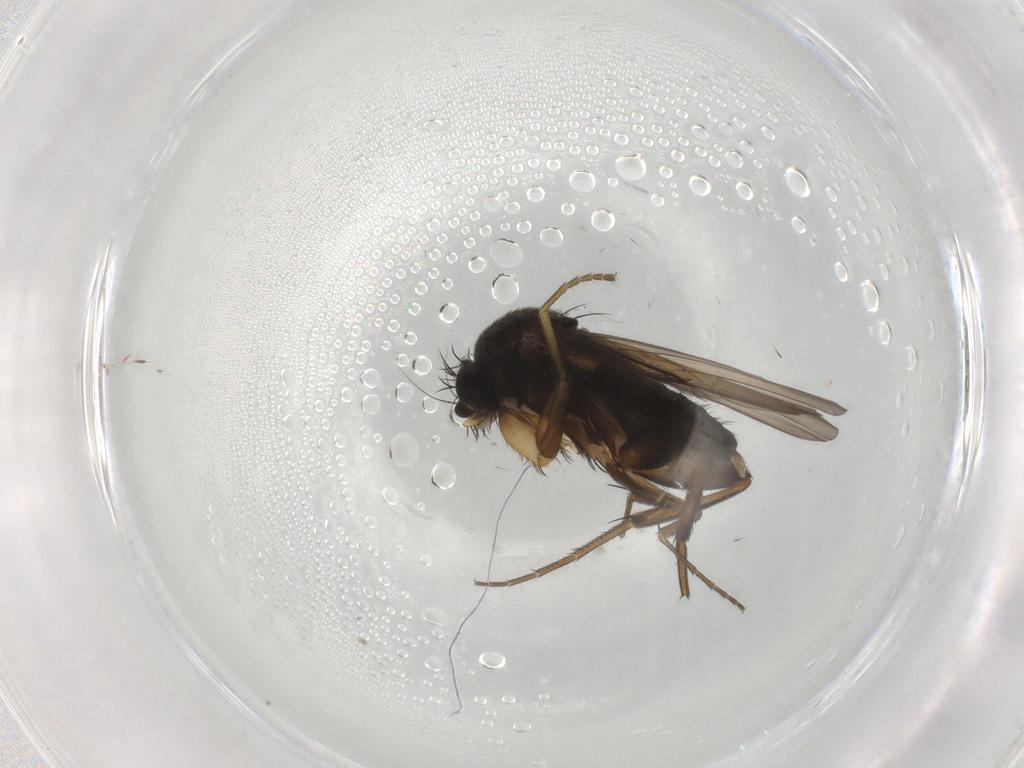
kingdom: Animalia
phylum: Arthropoda
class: Insecta
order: Diptera
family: Phoridae
